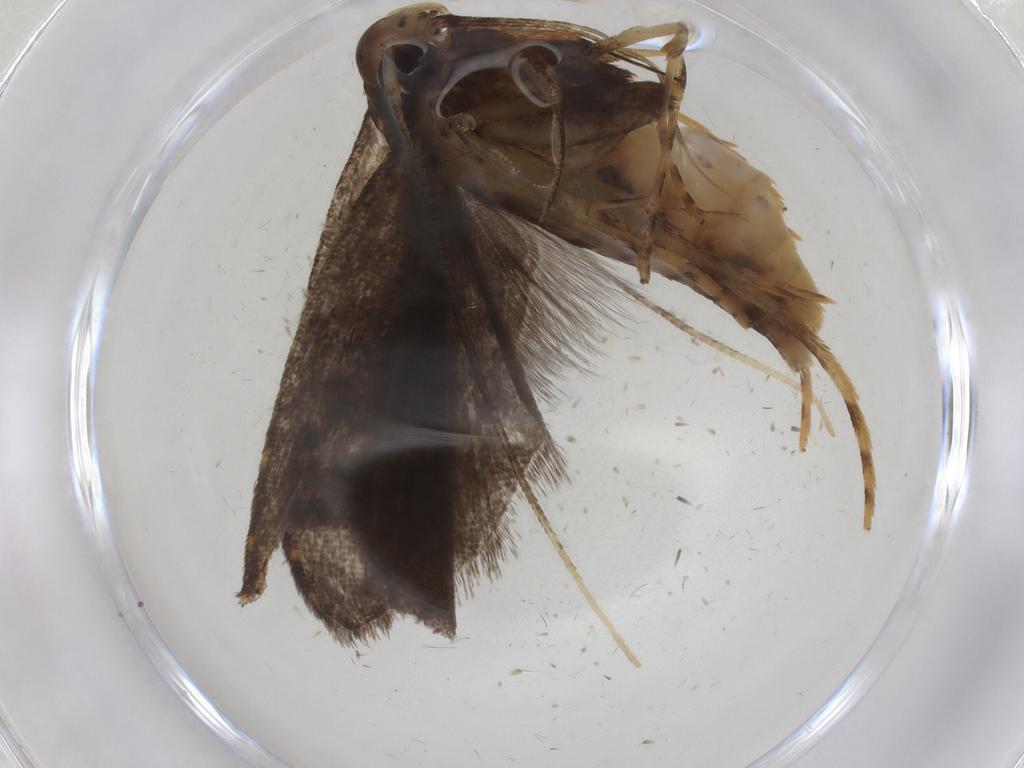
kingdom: Animalia
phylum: Arthropoda
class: Insecta
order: Lepidoptera
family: Cosmopterigidae
